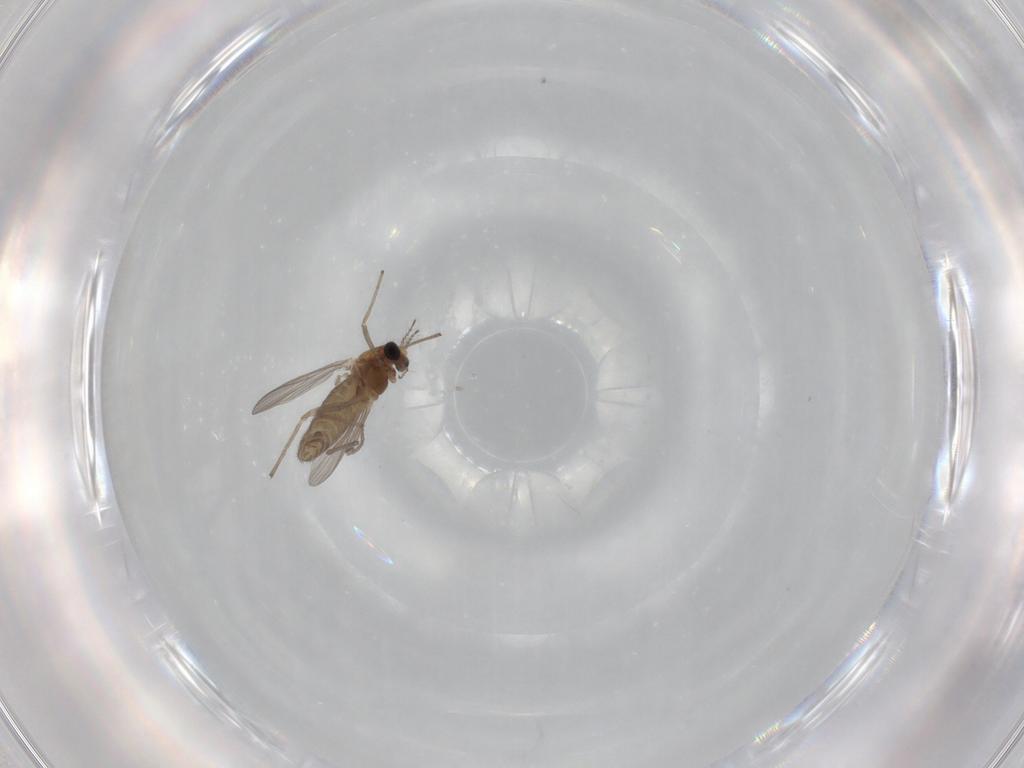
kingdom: Animalia
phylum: Arthropoda
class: Insecta
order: Diptera
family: Chironomidae
